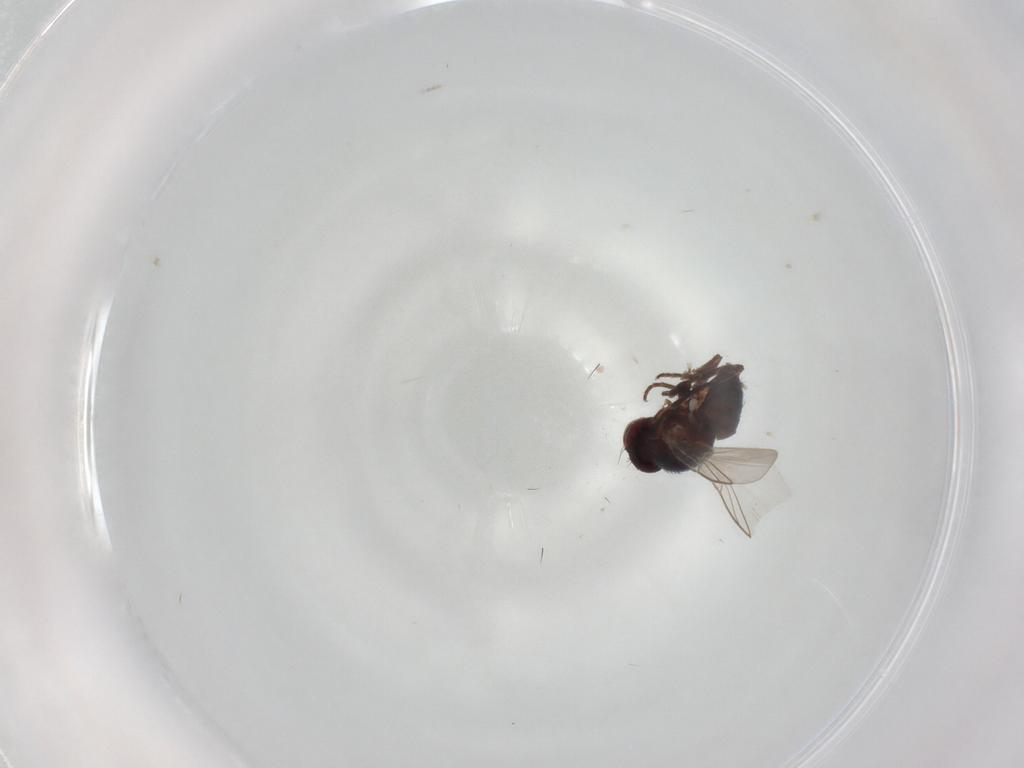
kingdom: Animalia
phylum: Arthropoda
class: Insecta
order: Diptera
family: Dolichopodidae
